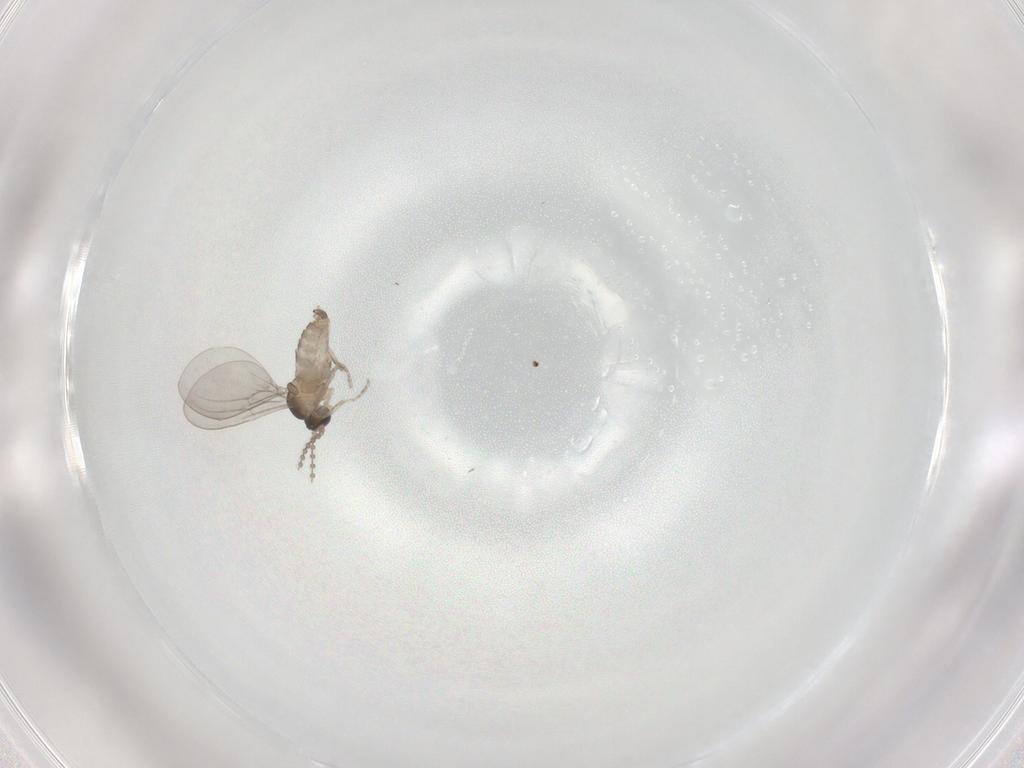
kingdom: Animalia
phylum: Arthropoda
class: Insecta
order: Diptera
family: Cecidomyiidae
